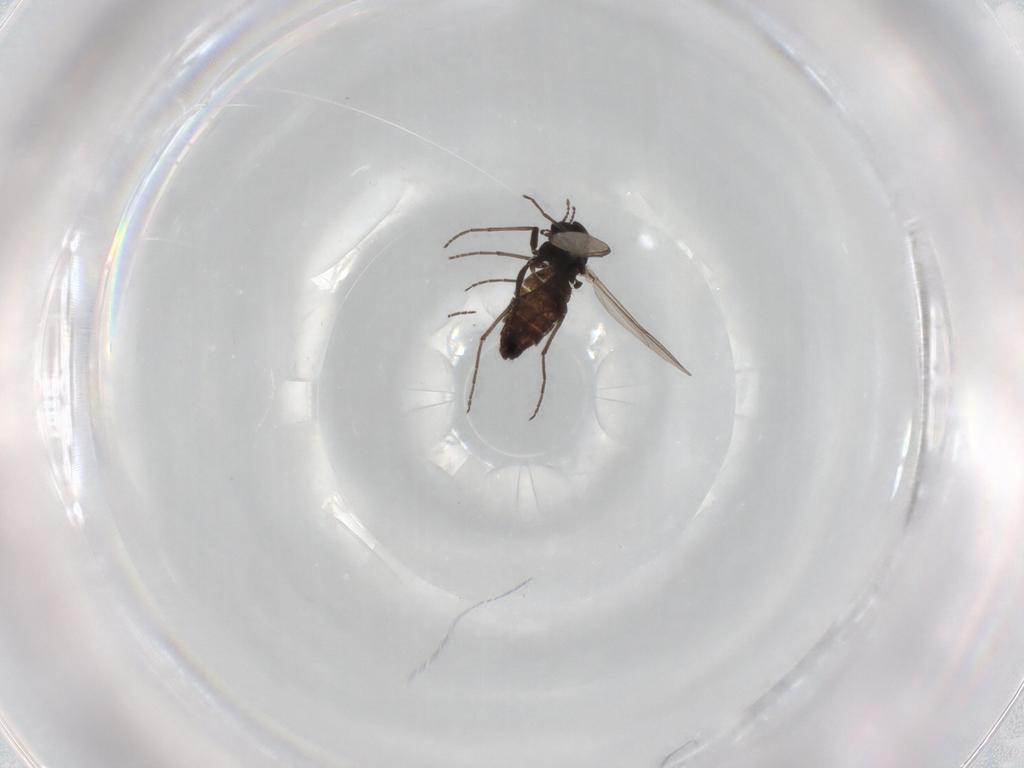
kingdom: Animalia
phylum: Arthropoda
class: Insecta
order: Diptera
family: Chironomidae
